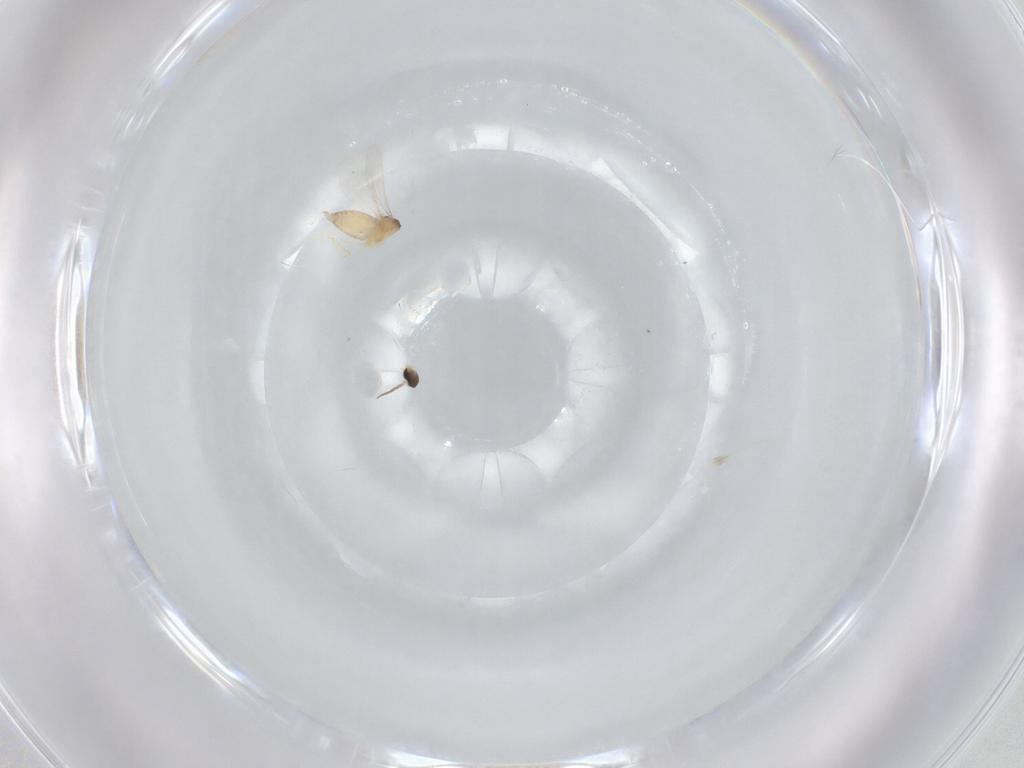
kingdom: Animalia
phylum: Arthropoda
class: Insecta
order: Diptera
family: Cecidomyiidae
